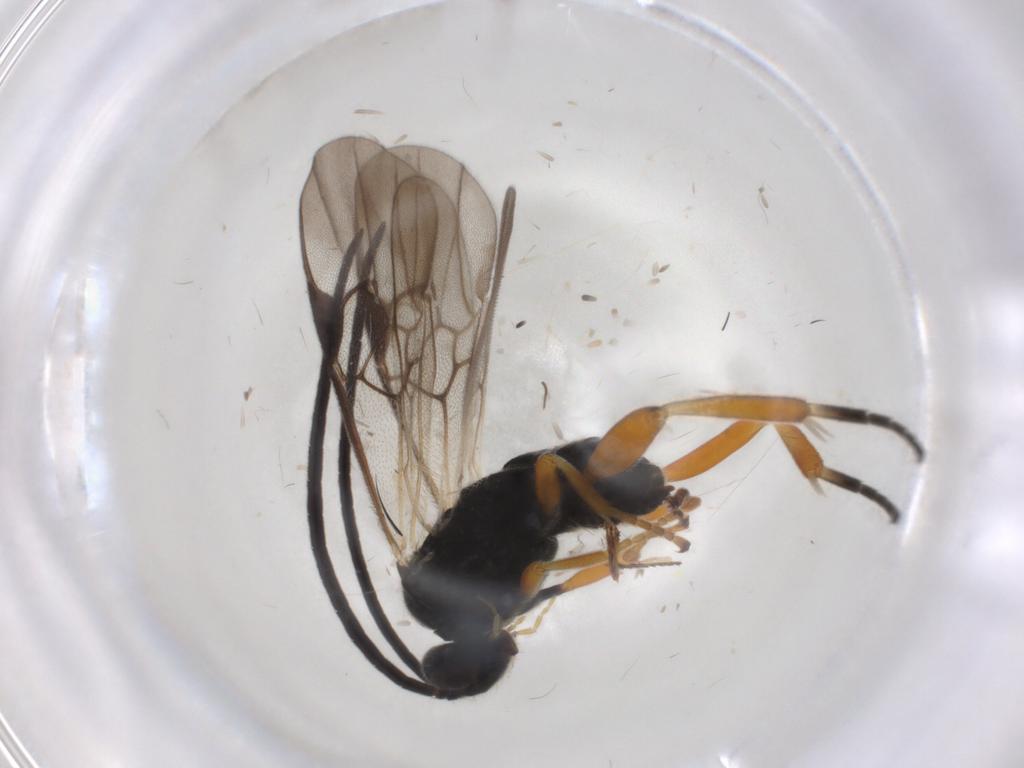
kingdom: Animalia
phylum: Arthropoda
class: Insecta
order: Hymenoptera
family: Braconidae
